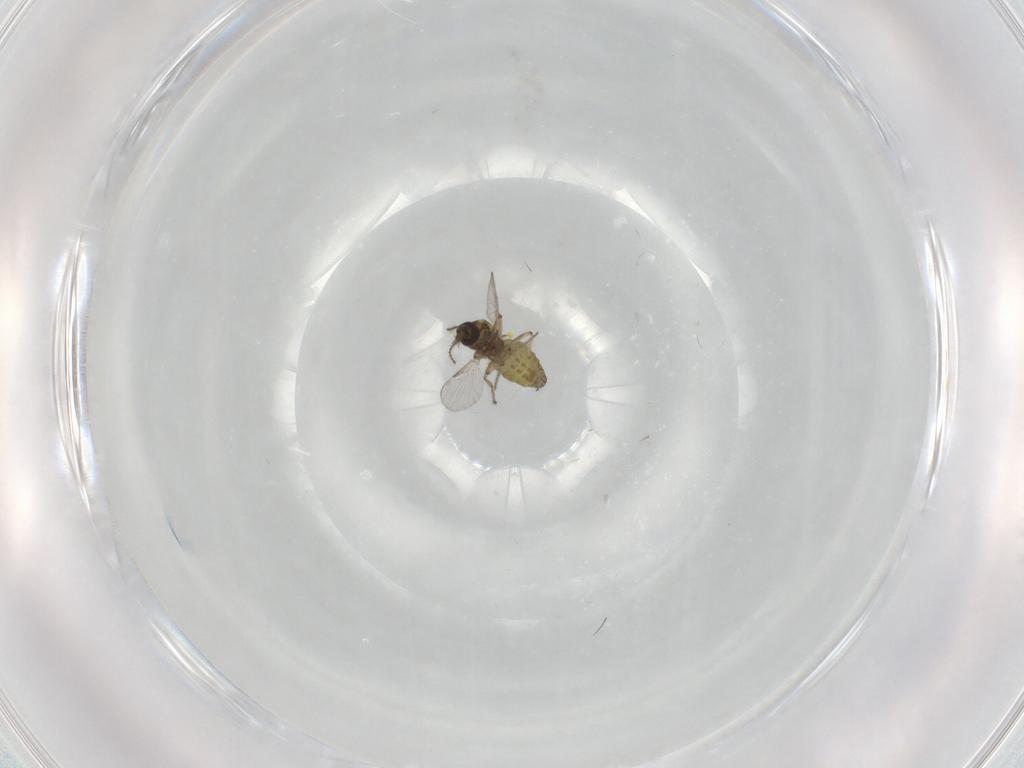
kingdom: Animalia
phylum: Arthropoda
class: Insecta
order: Diptera
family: Ceratopogonidae
